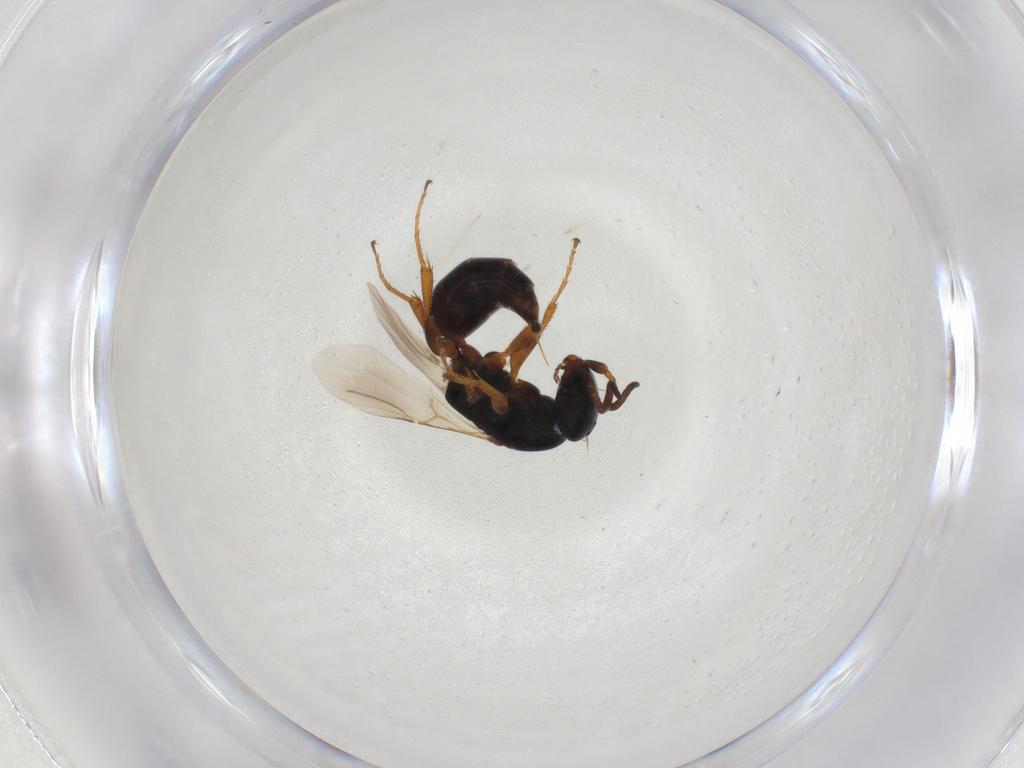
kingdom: Animalia
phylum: Arthropoda
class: Insecta
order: Hymenoptera
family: Bethylidae
